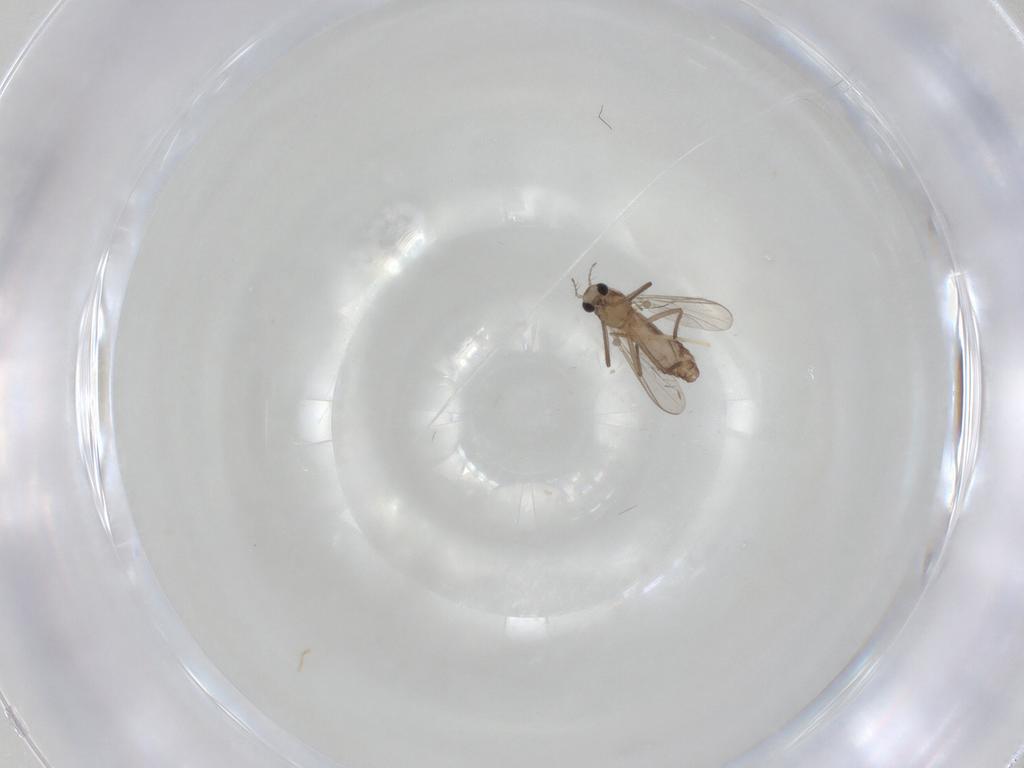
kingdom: Animalia
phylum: Arthropoda
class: Insecta
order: Diptera
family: Chironomidae
